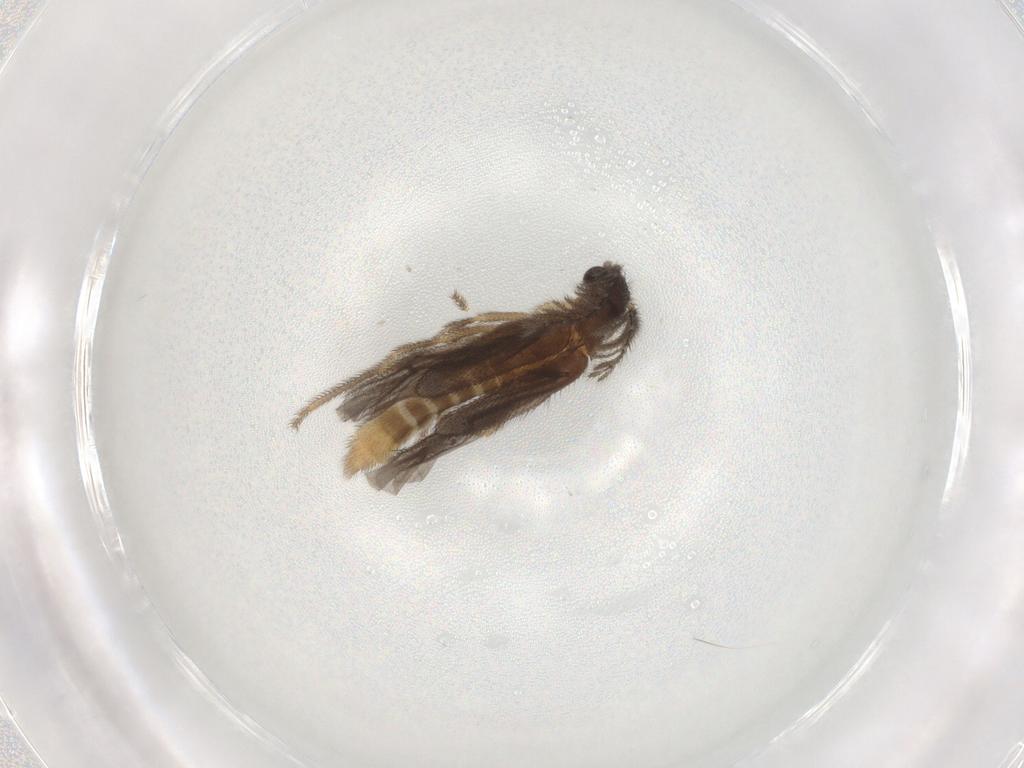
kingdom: Animalia
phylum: Arthropoda
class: Insecta
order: Coleoptera
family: Phengodidae
